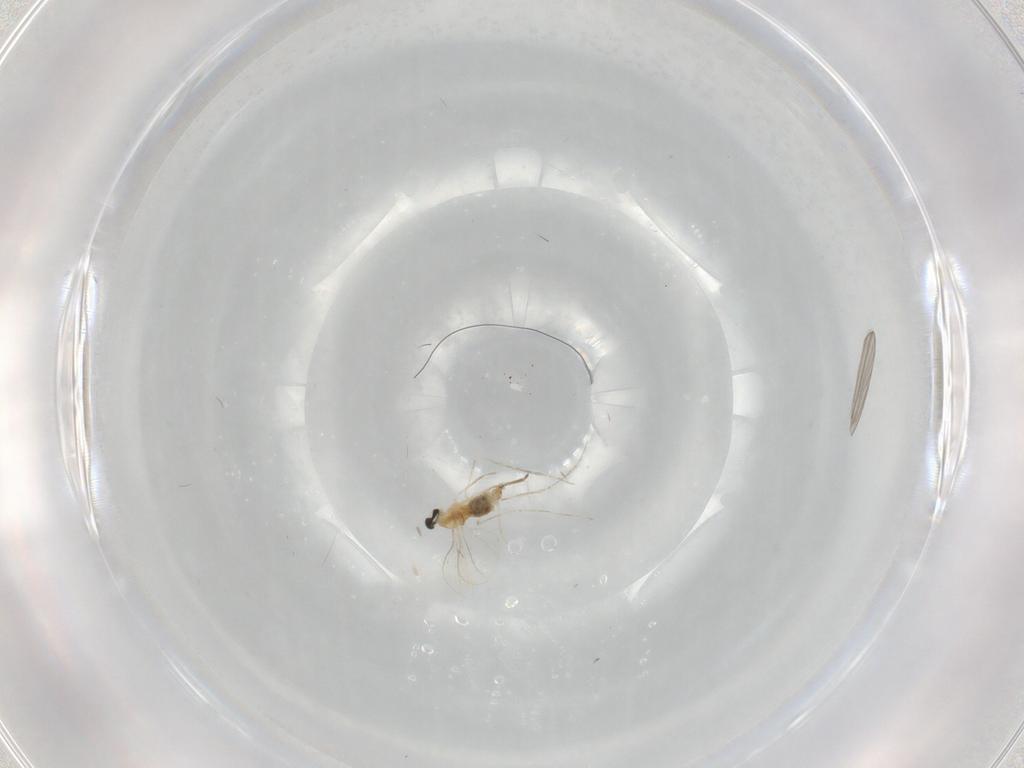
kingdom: Animalia
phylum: Arthropoda
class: Insecta
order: Diptera
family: Cecidomyiidae
